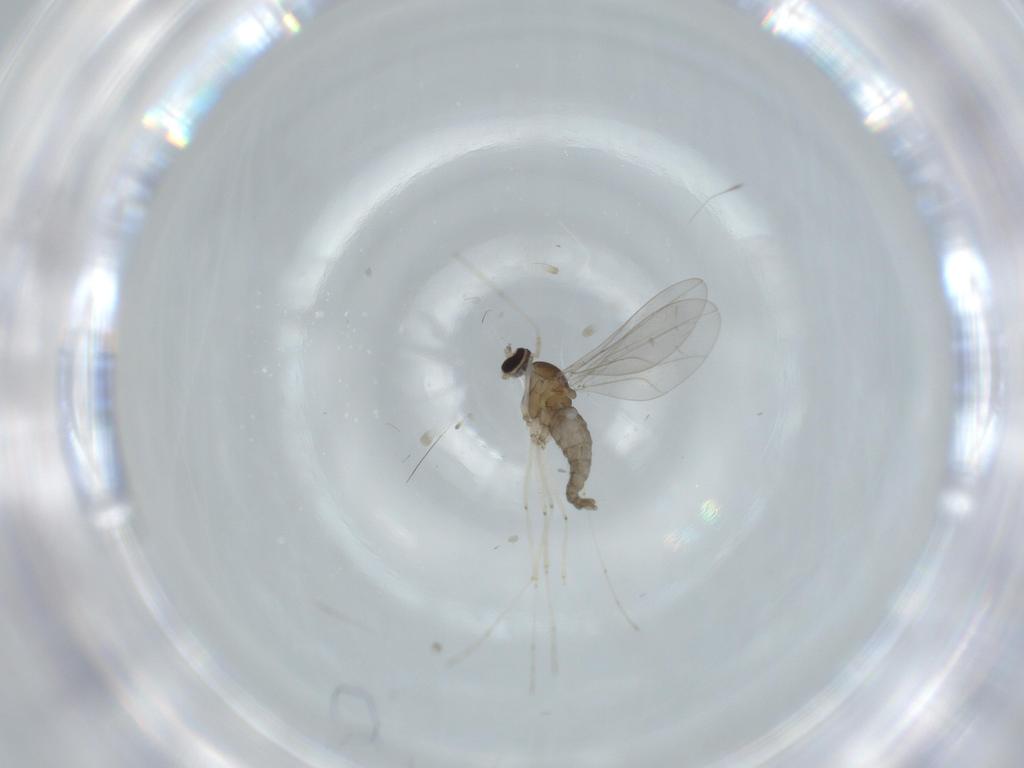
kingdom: Animalia
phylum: Arthropoda
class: Insecta
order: Diptera
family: Cecidomyiidae
